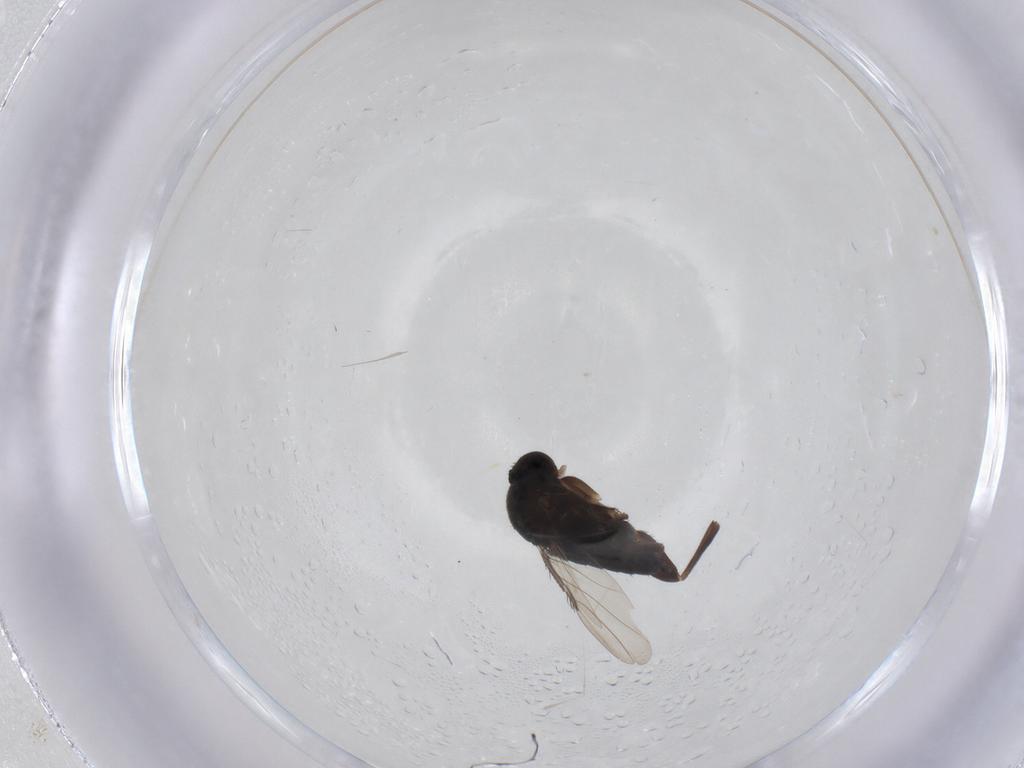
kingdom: Animalia
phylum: Arthropoda
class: Insecta
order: Diptera
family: Phoridae
